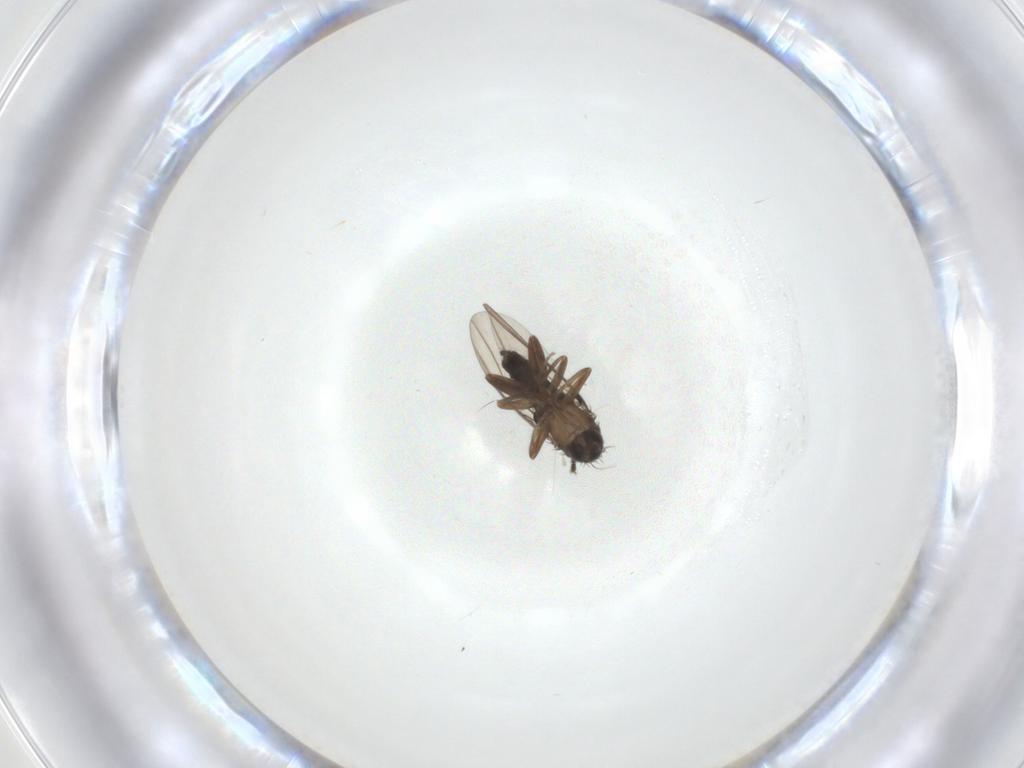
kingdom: Animalia
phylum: Arthropoda
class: Insecta
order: Diptera
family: Phoridae
